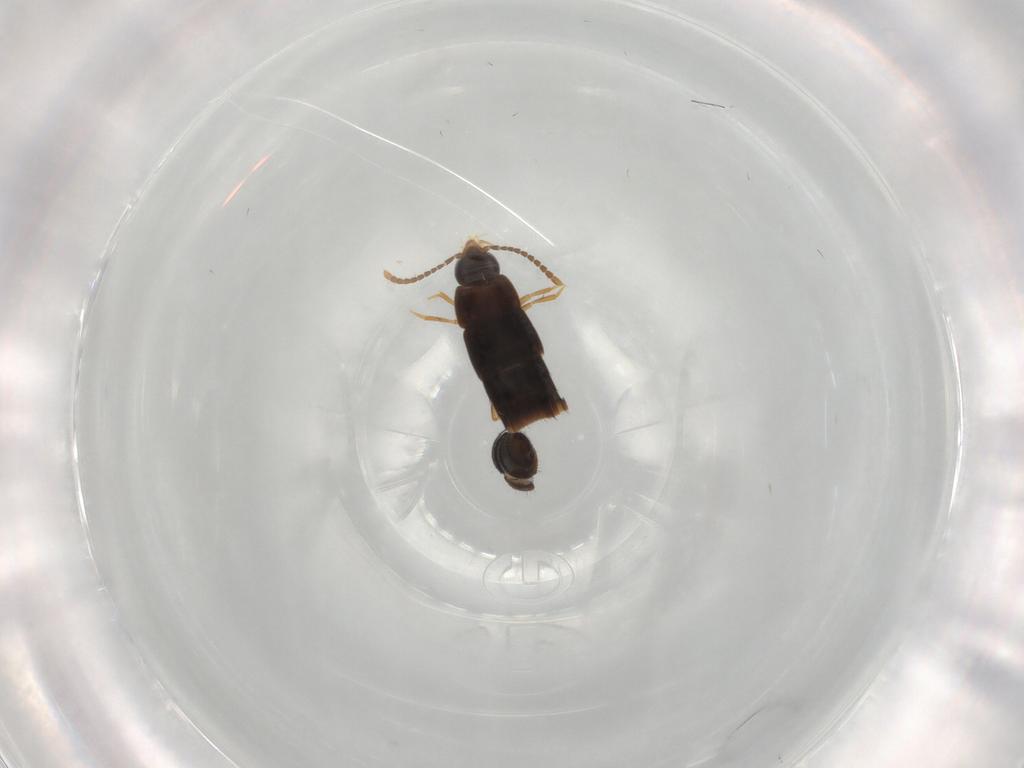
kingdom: Animalia
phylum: Arthropoda
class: Insecta
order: Coleoptera
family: Staphylinidae
